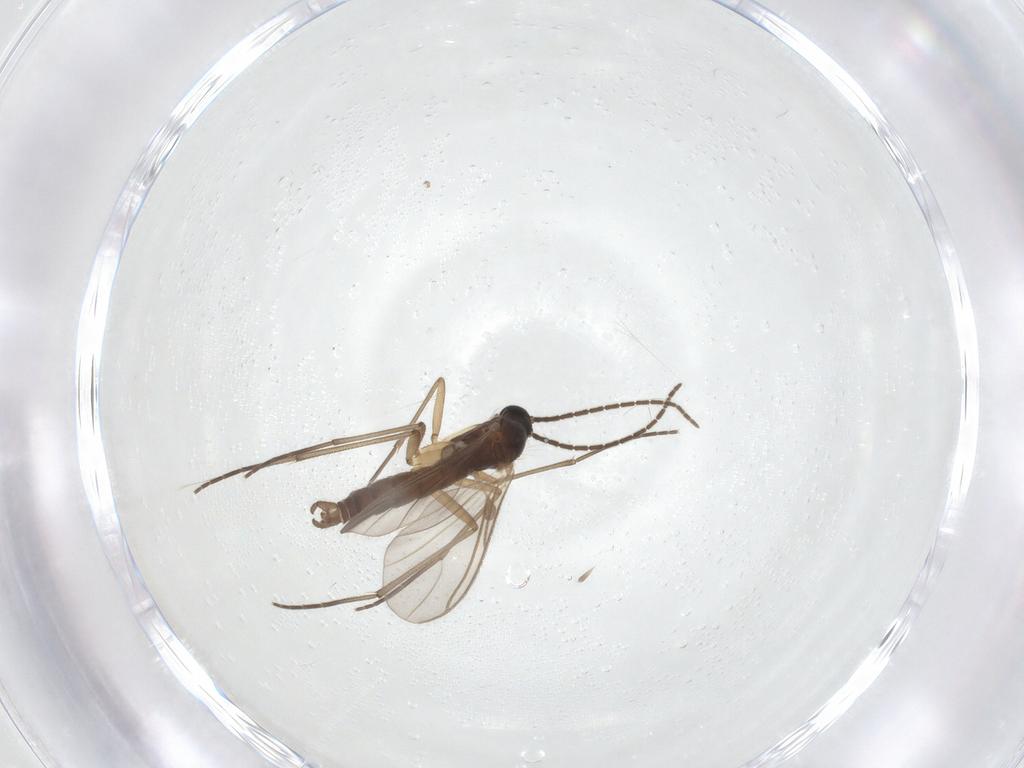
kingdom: Animalia
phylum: Arthropoda
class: Insecta
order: Diptera
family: Sciaridae
